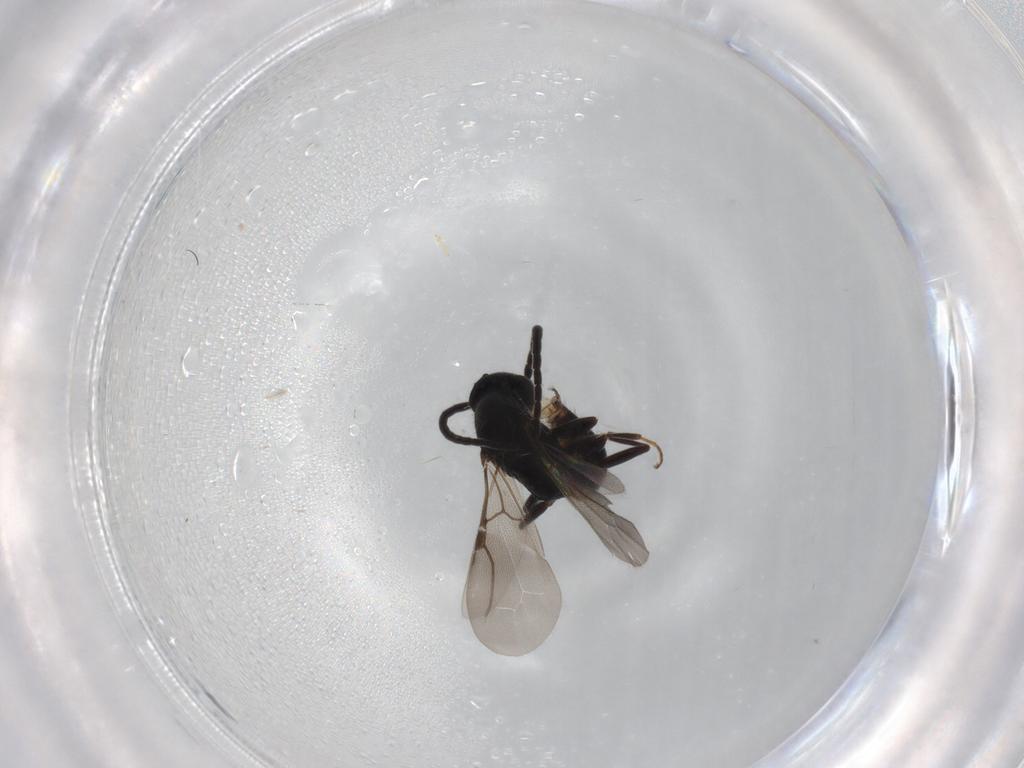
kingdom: Animalia
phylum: Arthropoda
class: Insecta
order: Hymenoptera
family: Bethylidae
